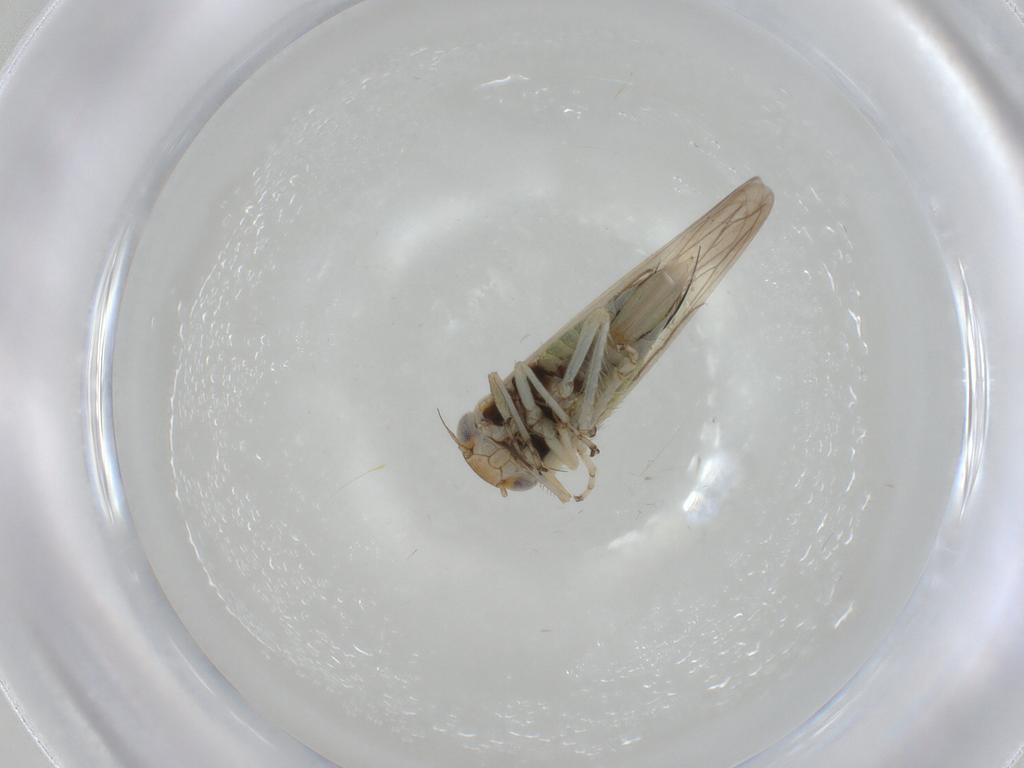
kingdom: Animalia
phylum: Arthropoda
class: Insecta
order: Hemiptera
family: Cicadellidae
